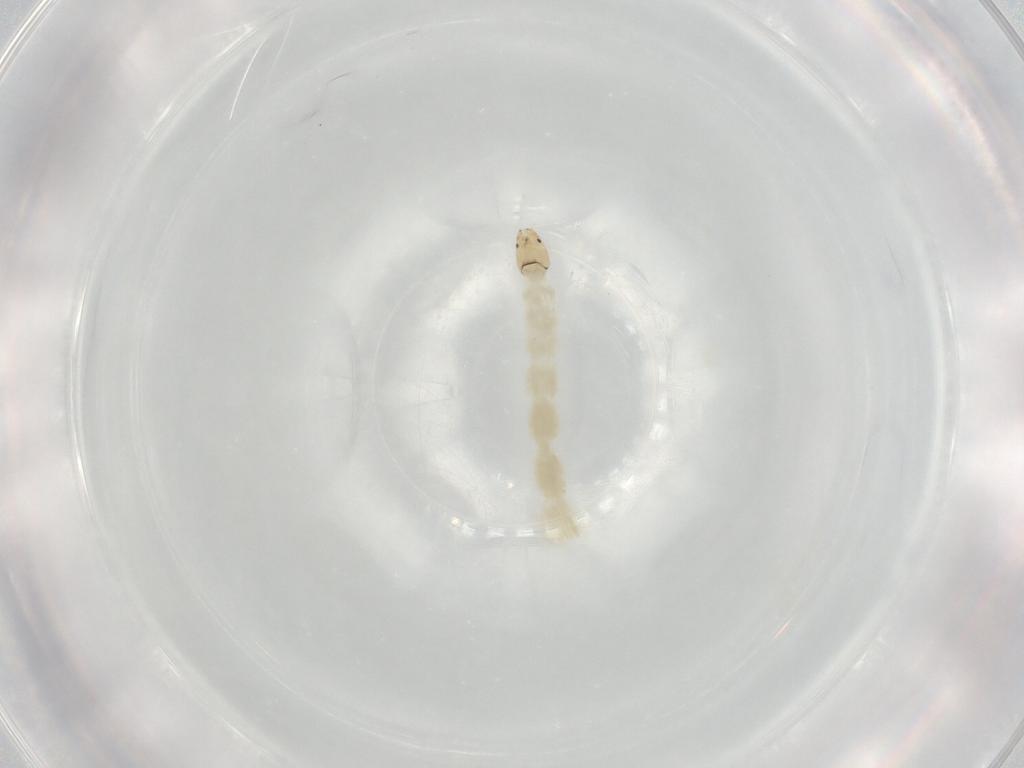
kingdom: Animalia
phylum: Arthropoda
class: Insecta
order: Diptera
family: Chironomidae
